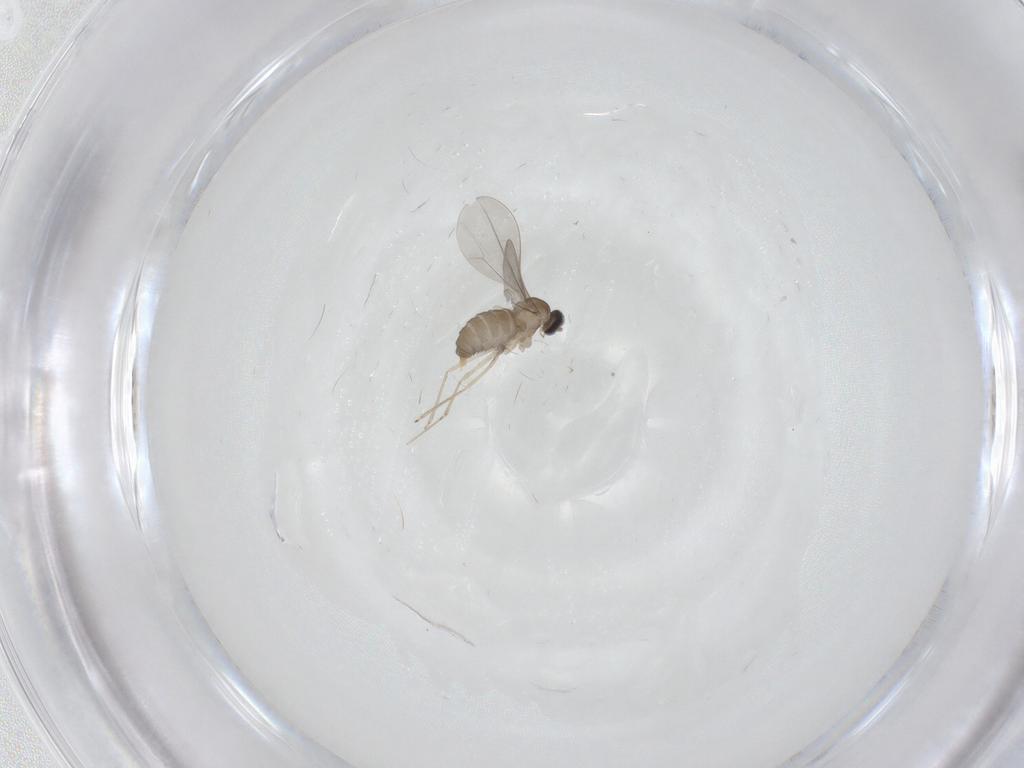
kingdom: Animalia
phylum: Arthropoda
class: Insecta
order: Diptera
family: Cecidomyiidae
